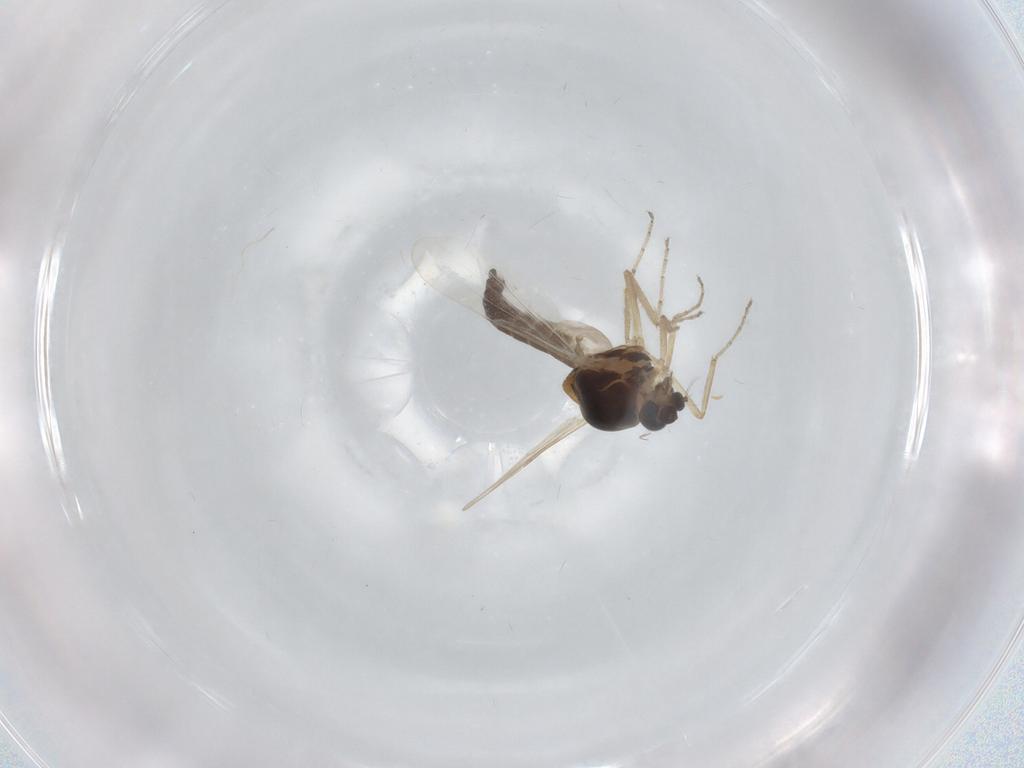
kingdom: Animalia
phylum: Arthropoda
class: Insecta
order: Diptera
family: Ceratopogonidae
